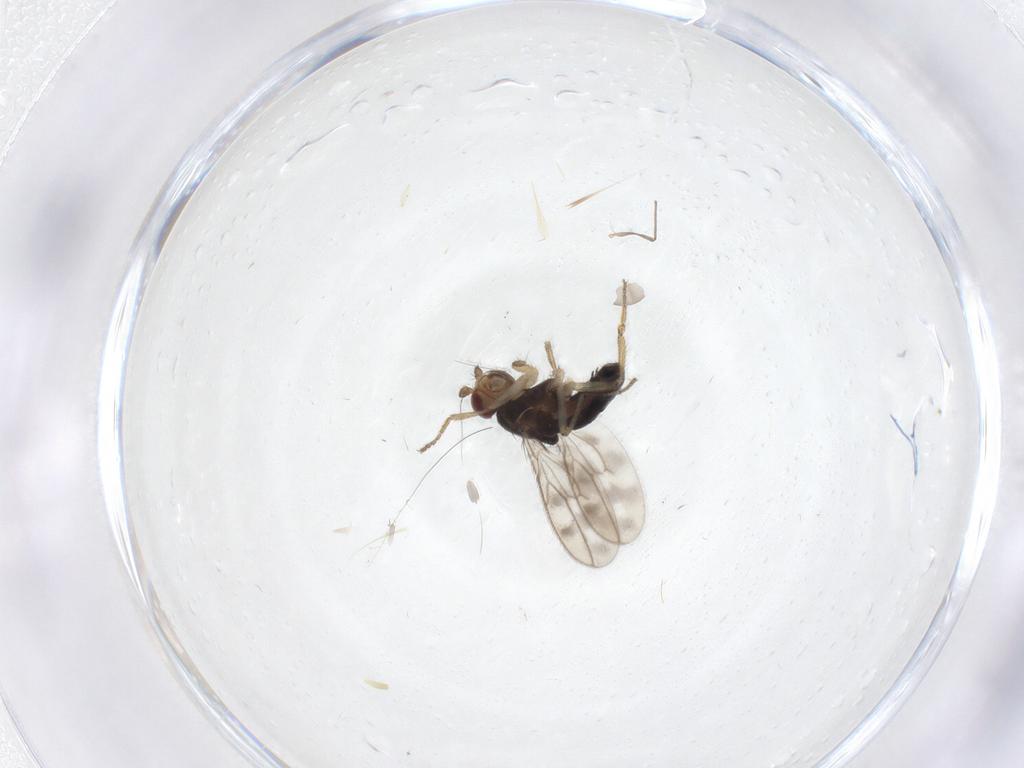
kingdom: Animalia
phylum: Arthropoda
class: Insecta
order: Diptera
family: Sphaeroceridae
